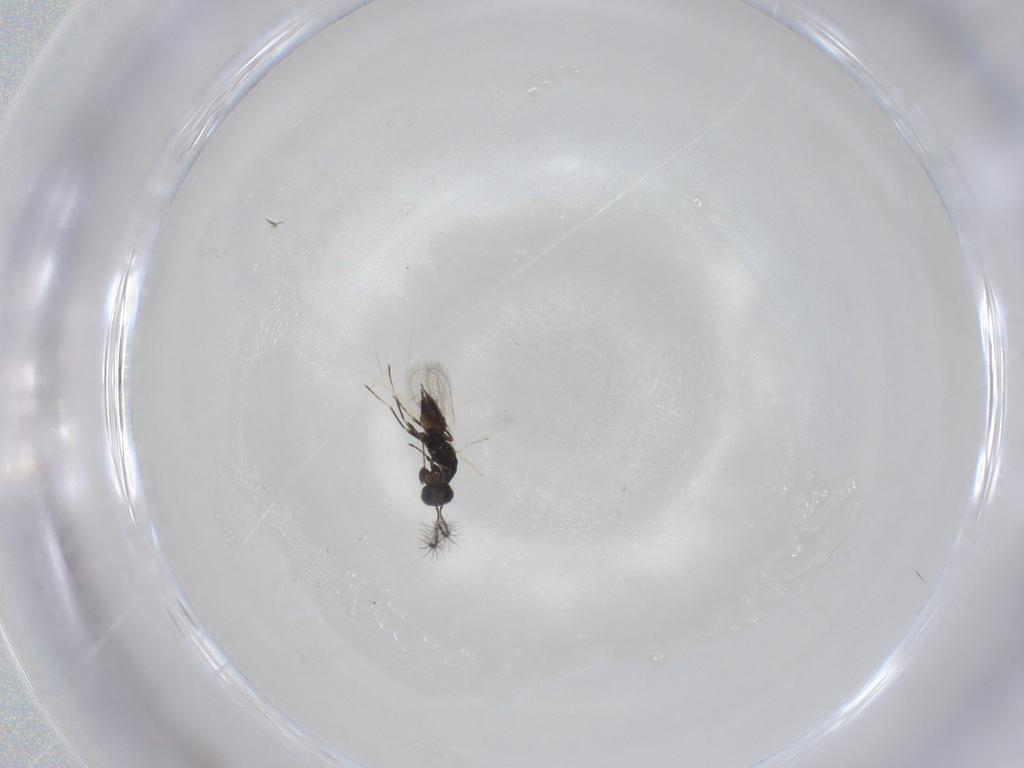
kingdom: Animalia
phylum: Arthropoda
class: Insecta
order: Hymenoptera
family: Eulophidae
